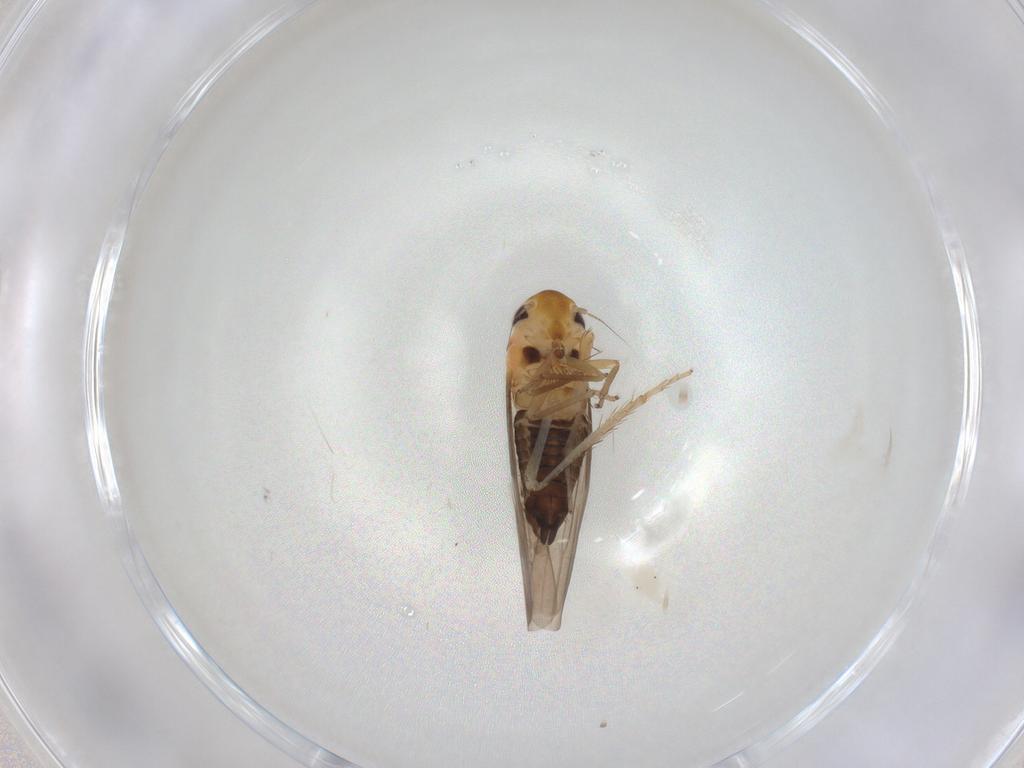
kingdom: Animalia
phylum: Arthropoda
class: Insecta
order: Hemiptera
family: Cicadellidae
